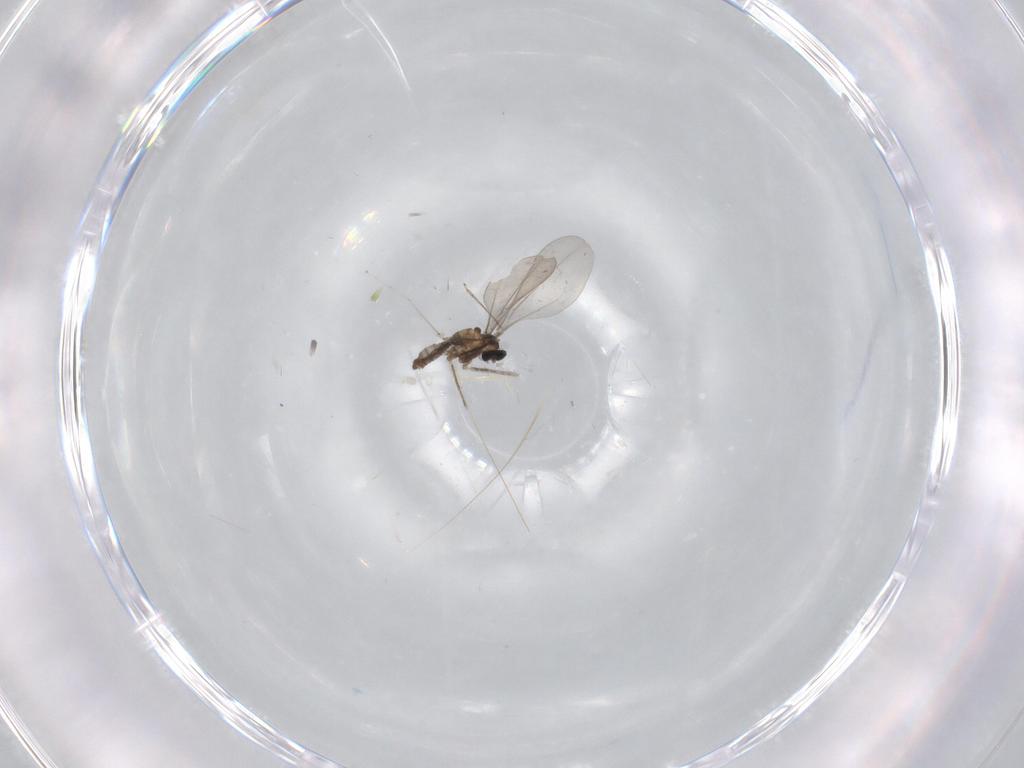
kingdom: Animalia
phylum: Arthropoda
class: Insecta
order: Diptera
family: Cecidomyiidae
